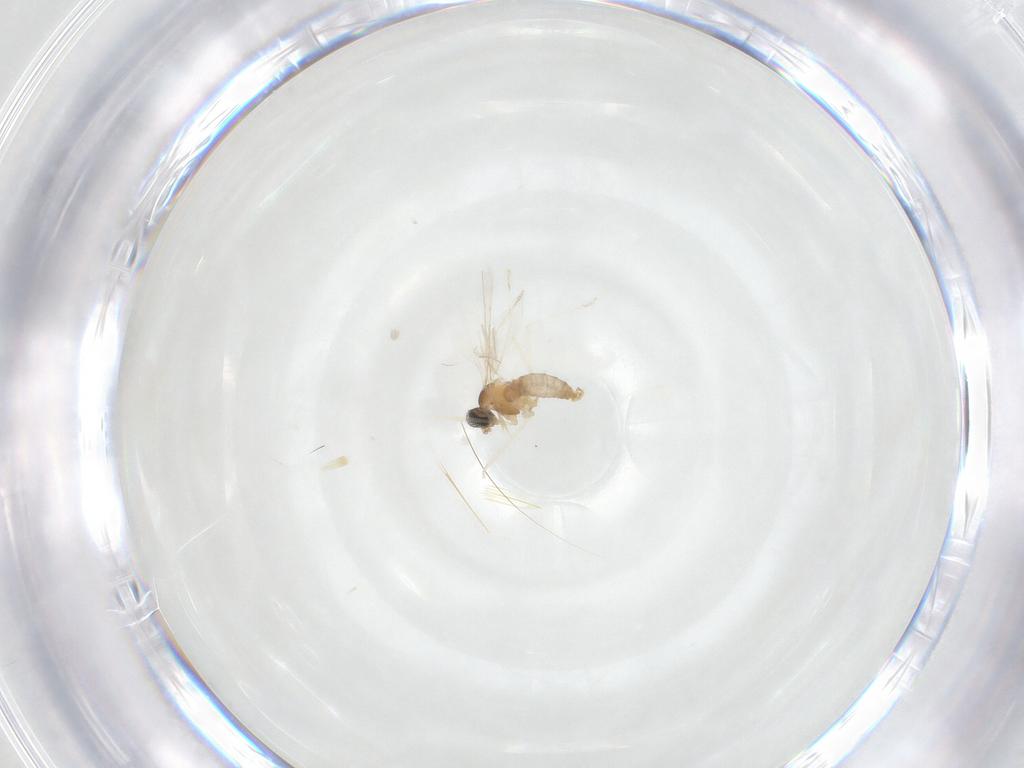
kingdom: Animalia
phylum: Arthropoda
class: Insecta
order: Diptera
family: Cecidomyiidae
